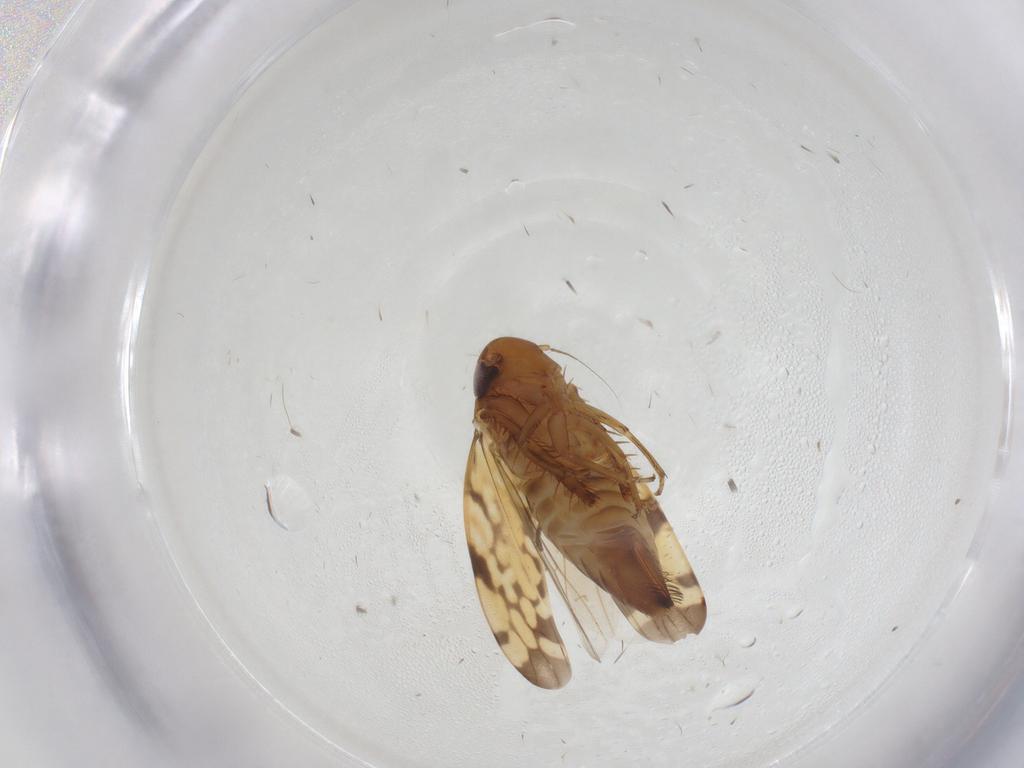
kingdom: Animalia
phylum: Arthropoda
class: Insecta
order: Hemiptera
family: Cicadellidae
